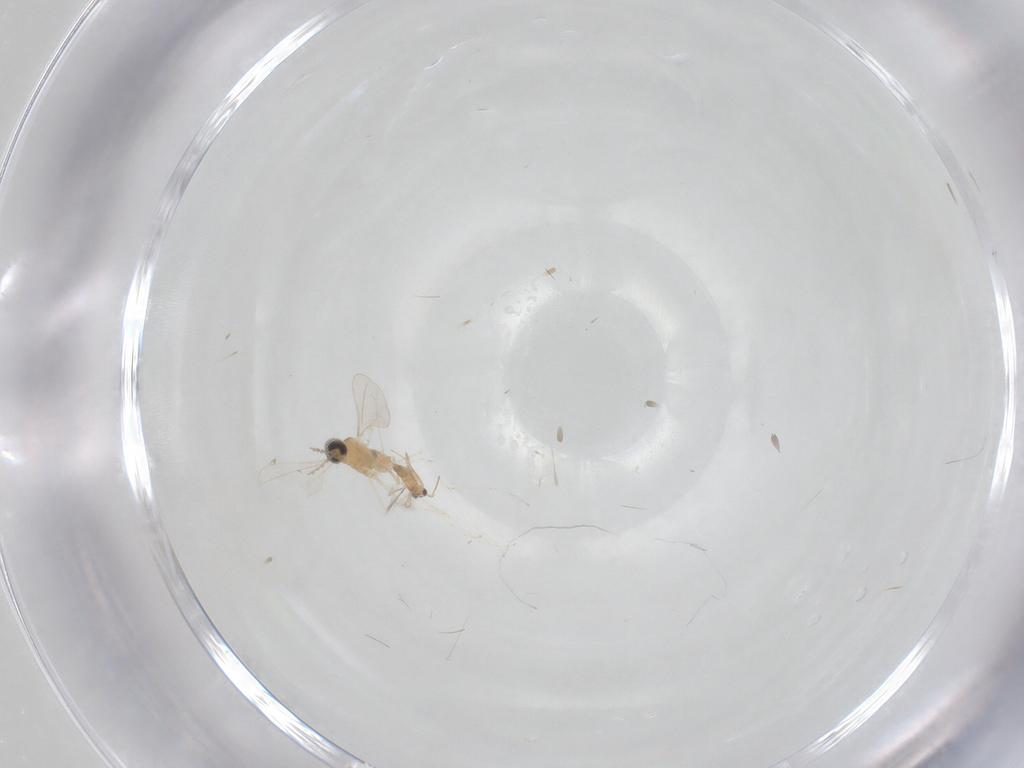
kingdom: Animalia
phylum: Arthropoda
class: Insecta
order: Diptera
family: Cecidomyiidae
